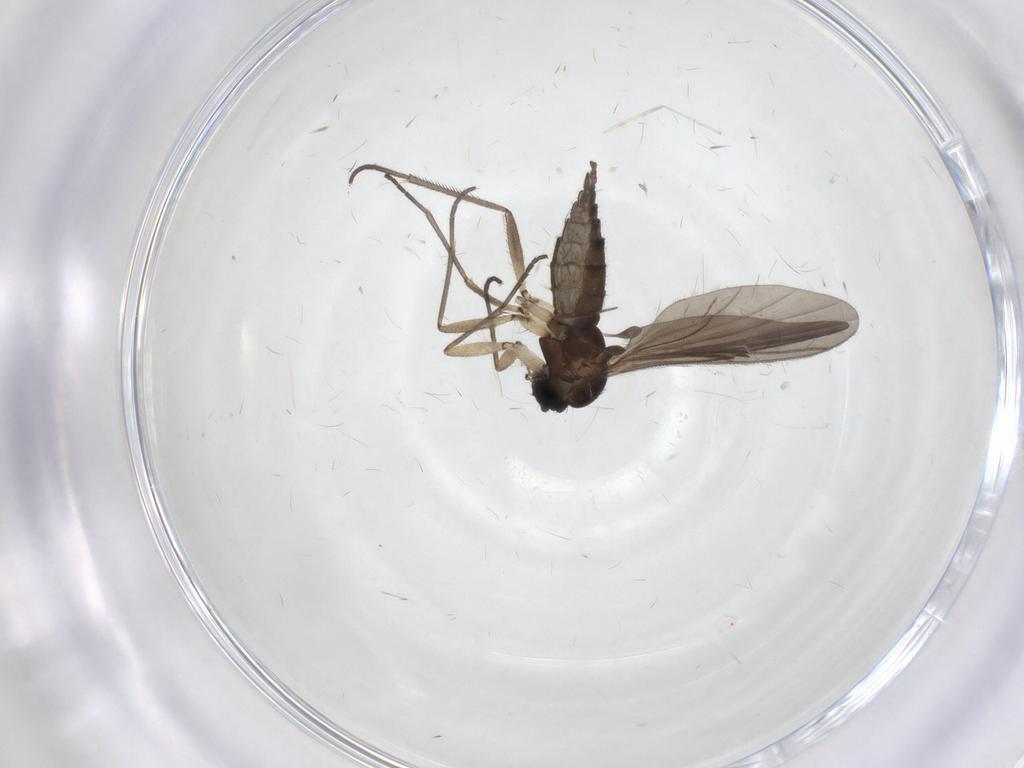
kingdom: Animalia
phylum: Arthropoda
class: Insecta
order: Diptera
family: Sciaridae
